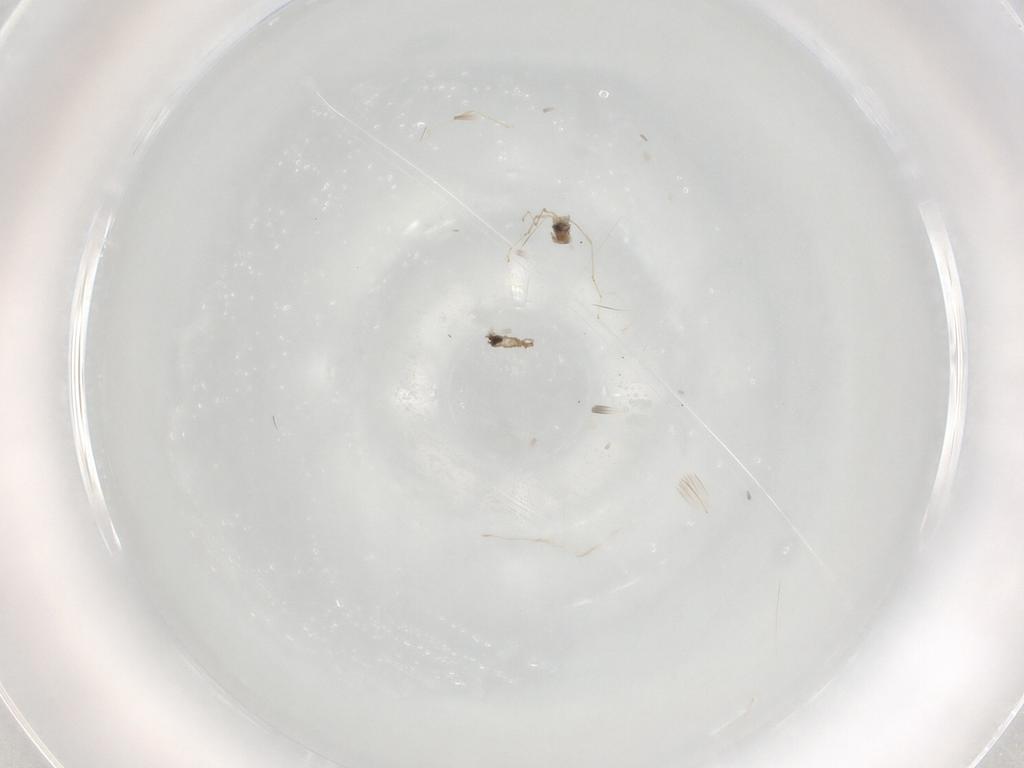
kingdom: Animalia
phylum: Arthropoda
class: Insecta
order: Diptera
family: Cecidomyiidae
